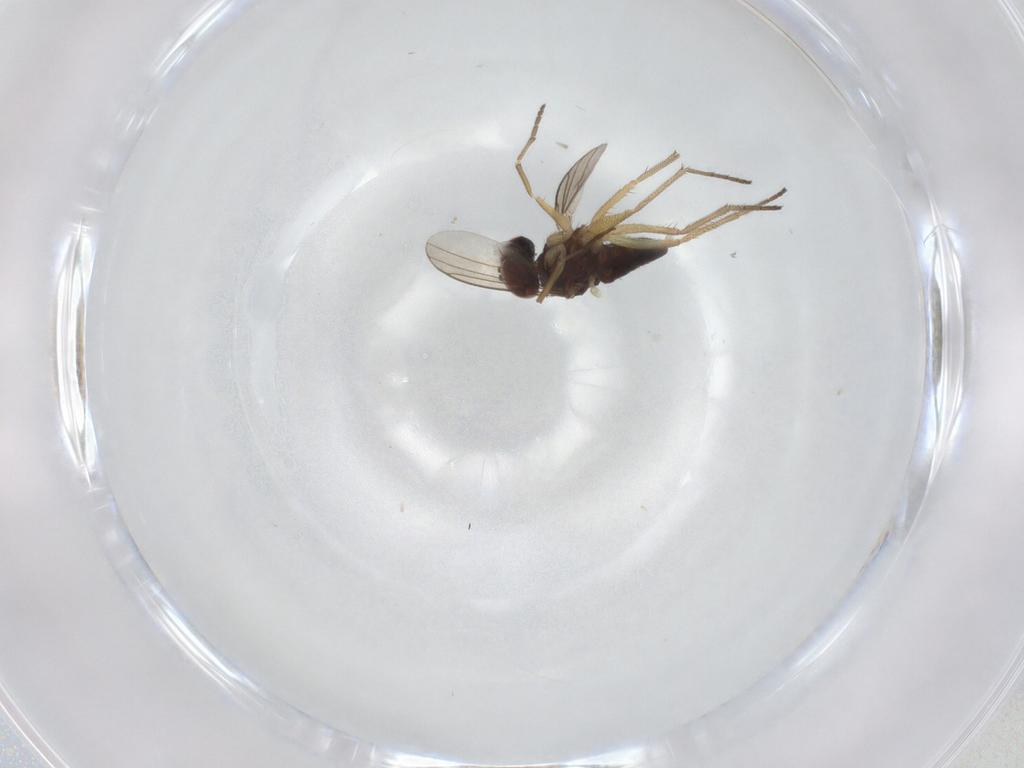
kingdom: Animalia
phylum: Arthropoda
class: Insecta
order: Diptera
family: Dolichopodidae
